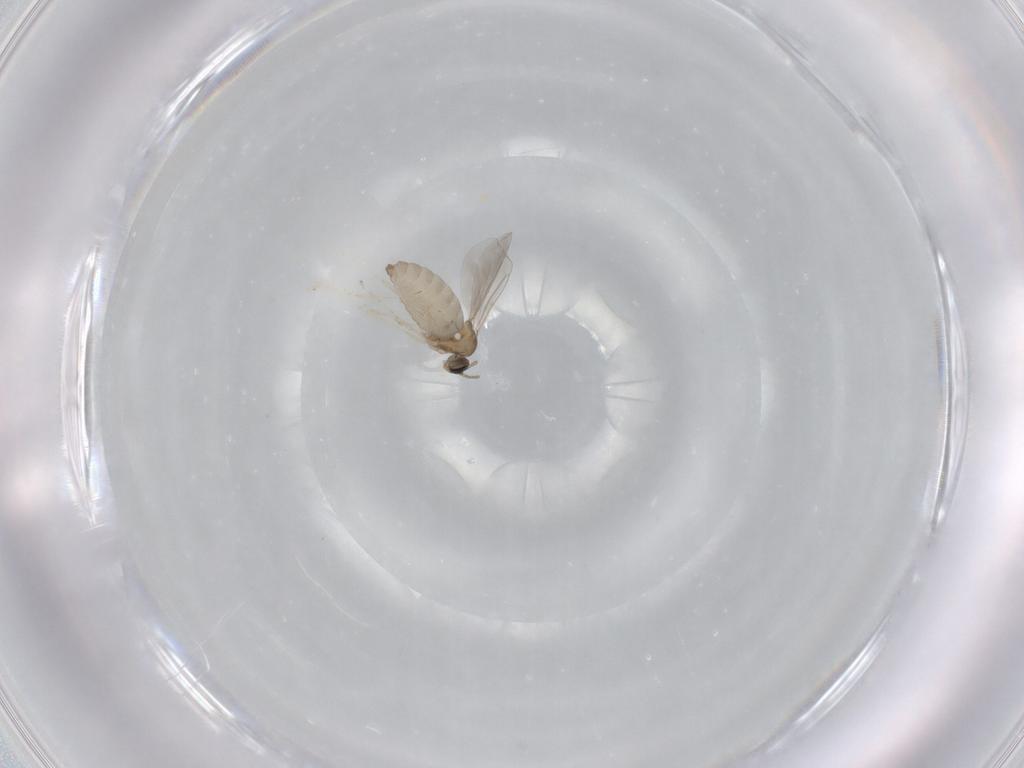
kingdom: Animalia
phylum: Arthropoda
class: Insecta
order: Diptera
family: Cecidomyiidae
